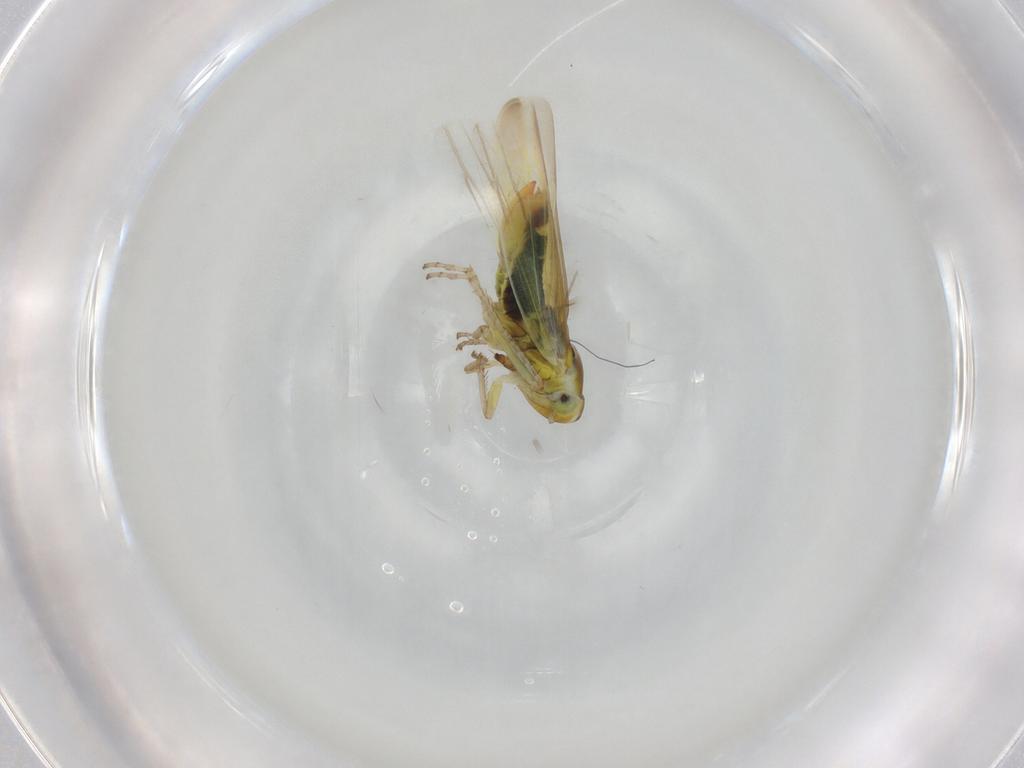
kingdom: Animalia
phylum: Arthropoda
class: Insecta
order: Hemiptera
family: Cicadellidae
